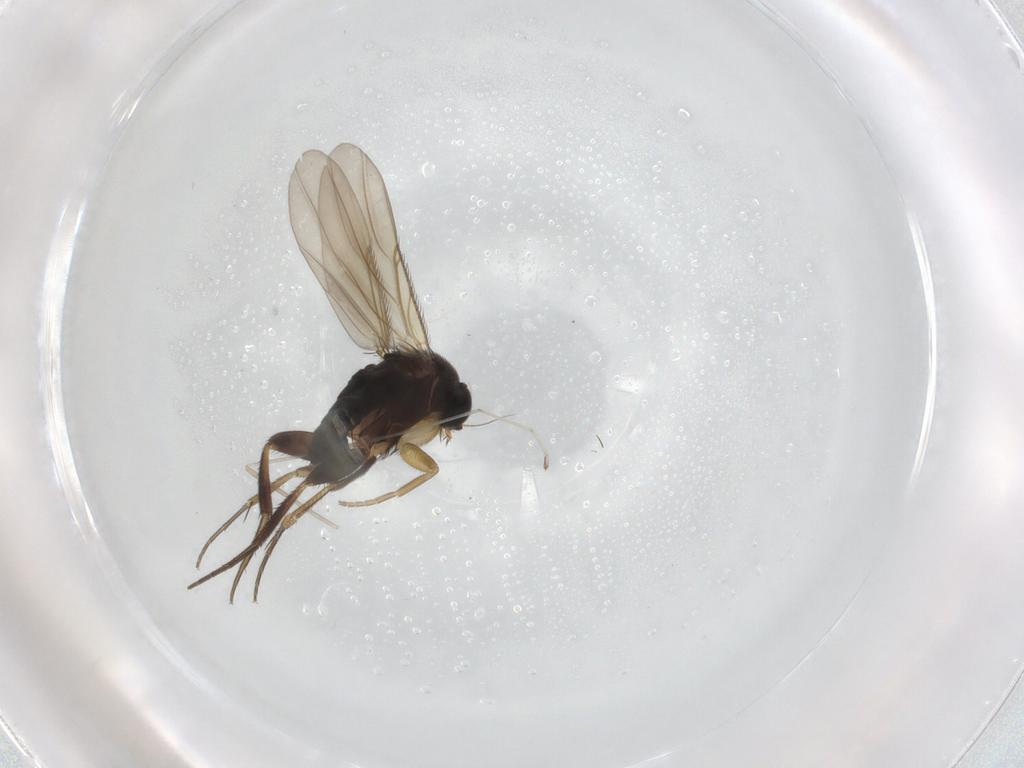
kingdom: Animalia
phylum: Arthropoda
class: Insecta
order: Diptera
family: Phoridae
